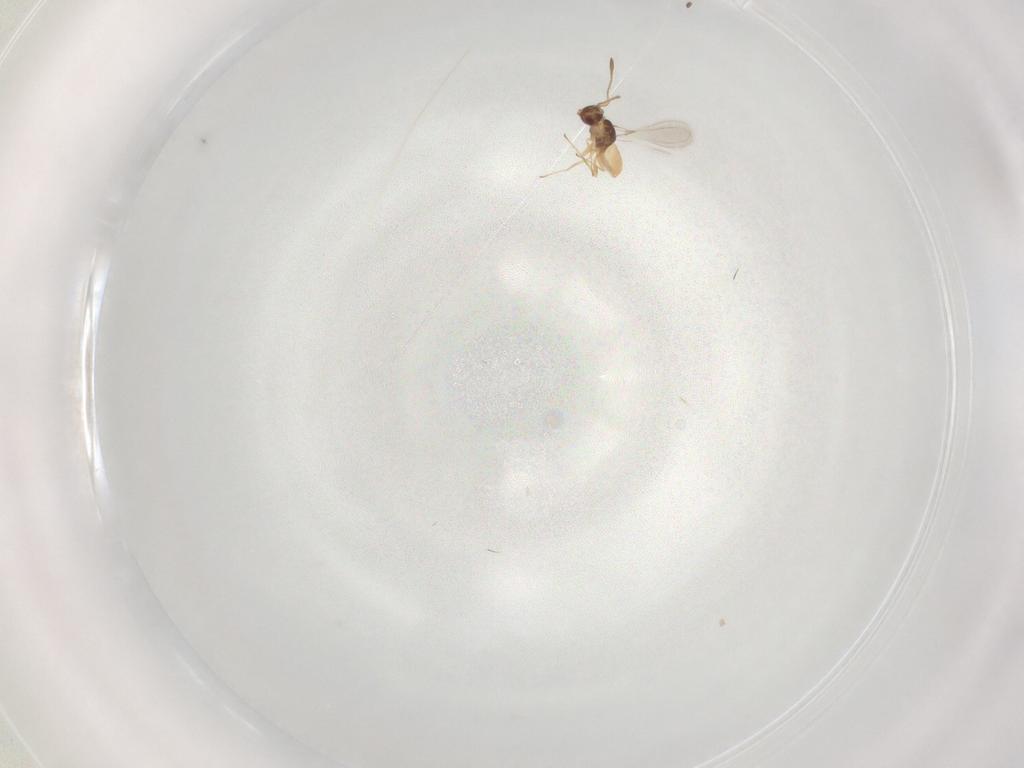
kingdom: Animalia
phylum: Arthropoda
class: Insecta
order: Hymenoptera
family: Mymaridae
